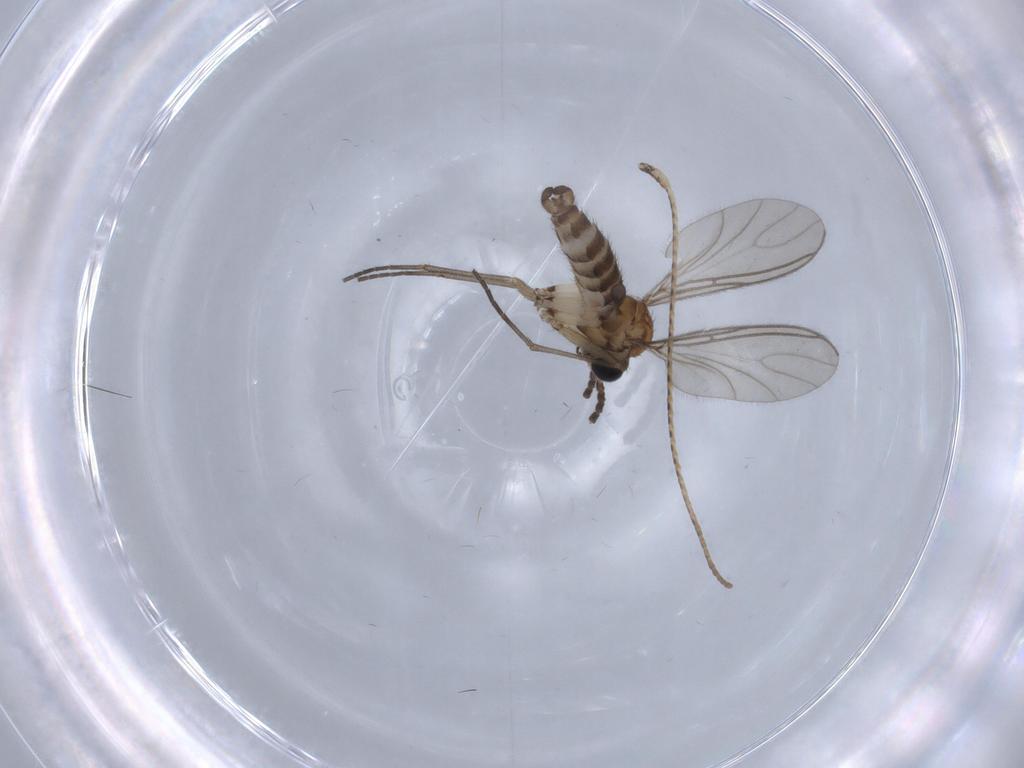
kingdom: Animalia
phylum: Arthropoda
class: Insecta
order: Diptera
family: Sciaridae
